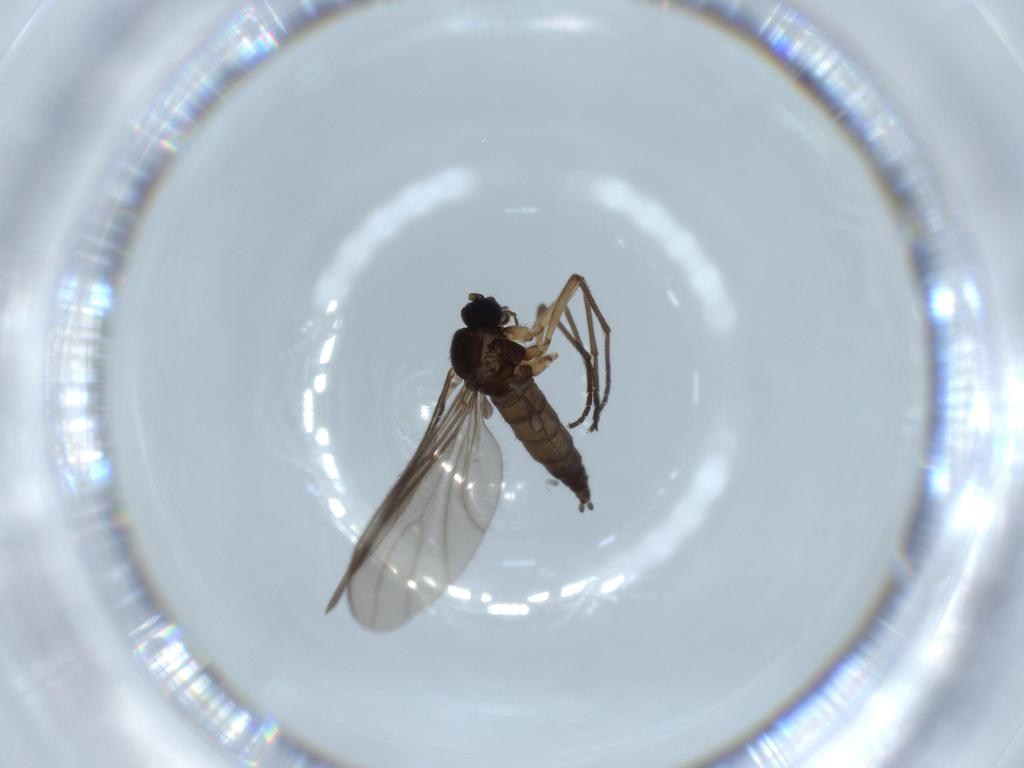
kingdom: Animalia
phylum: Arthropoda
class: Insecta
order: Diptera
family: Sciaridae
